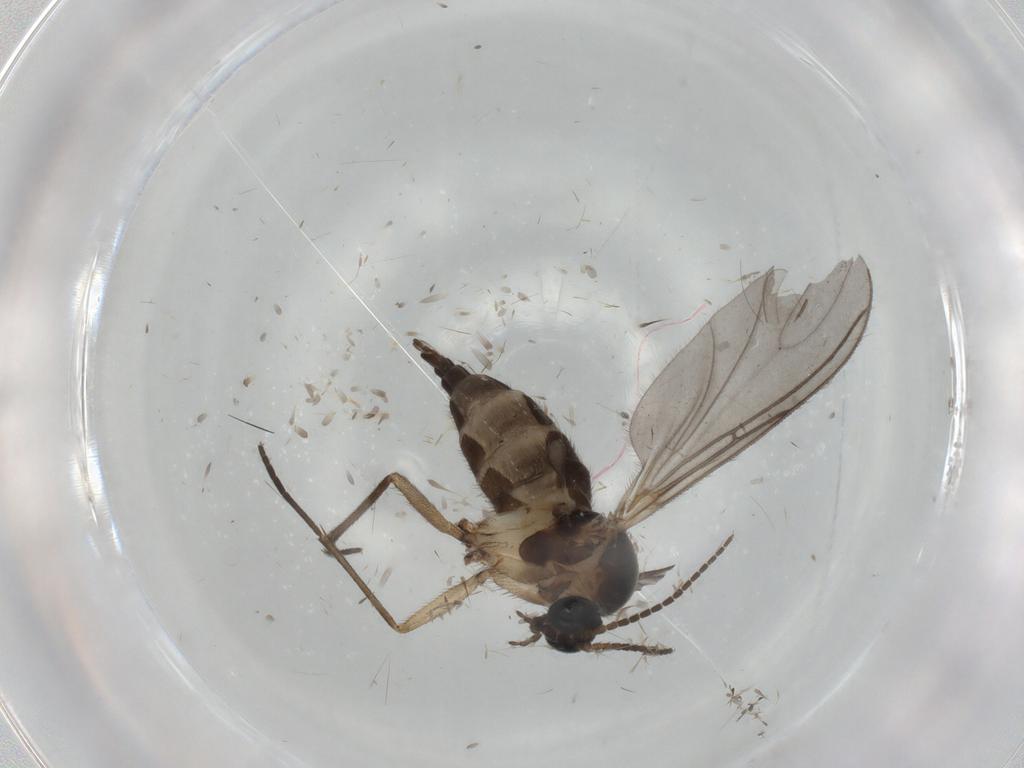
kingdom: Animalia
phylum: Arthropoda
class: Insecta
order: Diptera
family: Sciaridae
